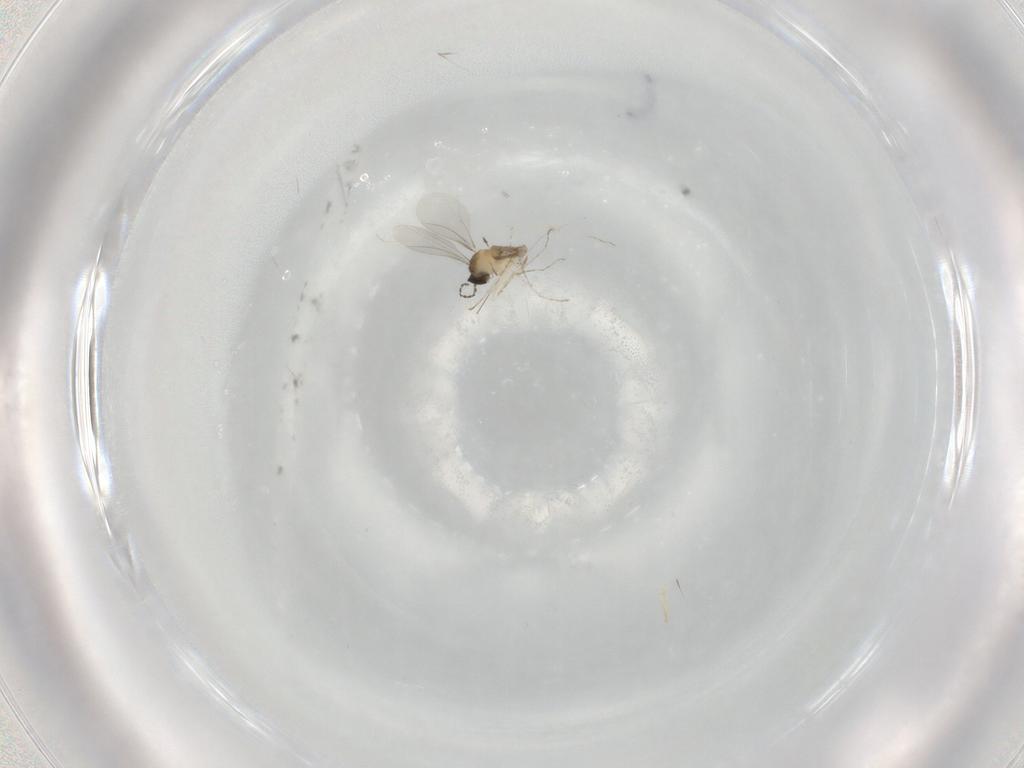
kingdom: Animalia
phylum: Arthropoda
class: Insecta
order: Diptera
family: Cecidomyiidae
